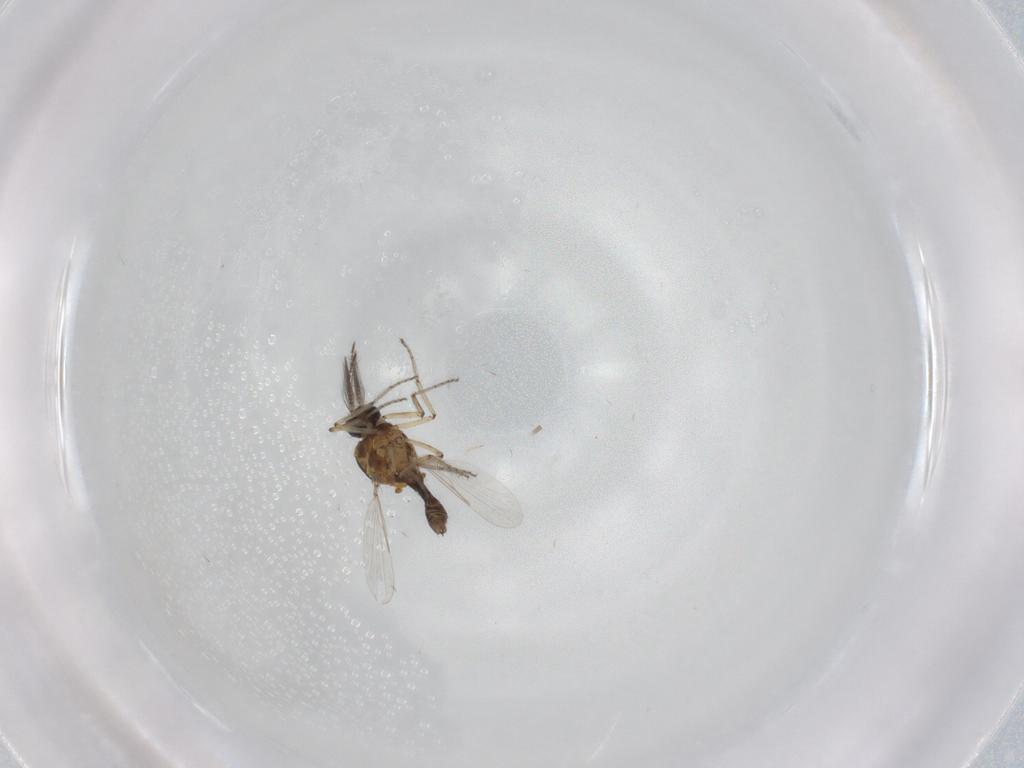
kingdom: Animalia
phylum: Arthropoda
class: Insecta
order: Diptera
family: Ceratopogonidae
